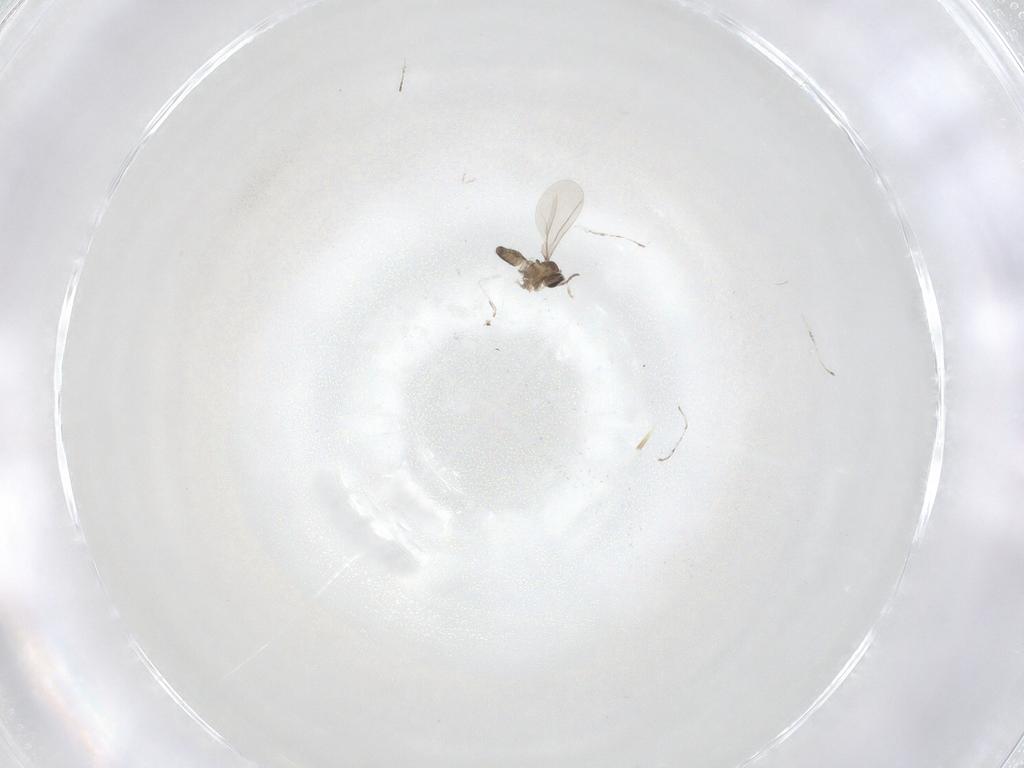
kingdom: Animalia
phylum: Arthropoda
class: Insecta
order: Diptera
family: Cecidomyiidae
